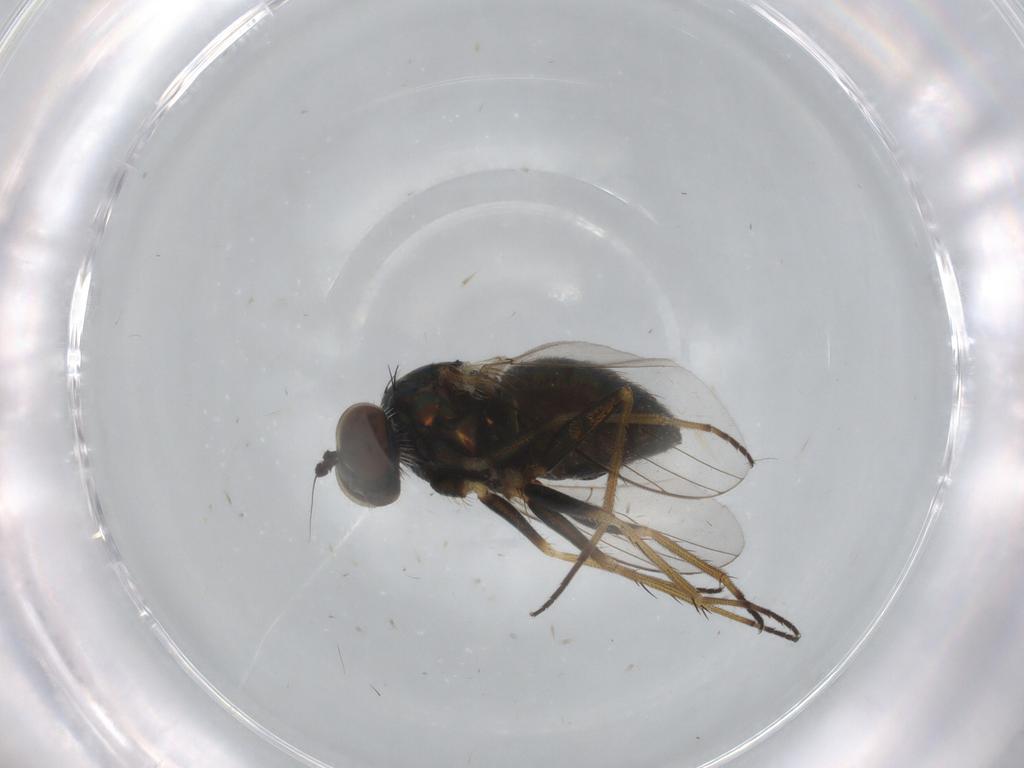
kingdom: Animalia
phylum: Arthropoda
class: Insecta
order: Diptera
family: Dolichopodidae
